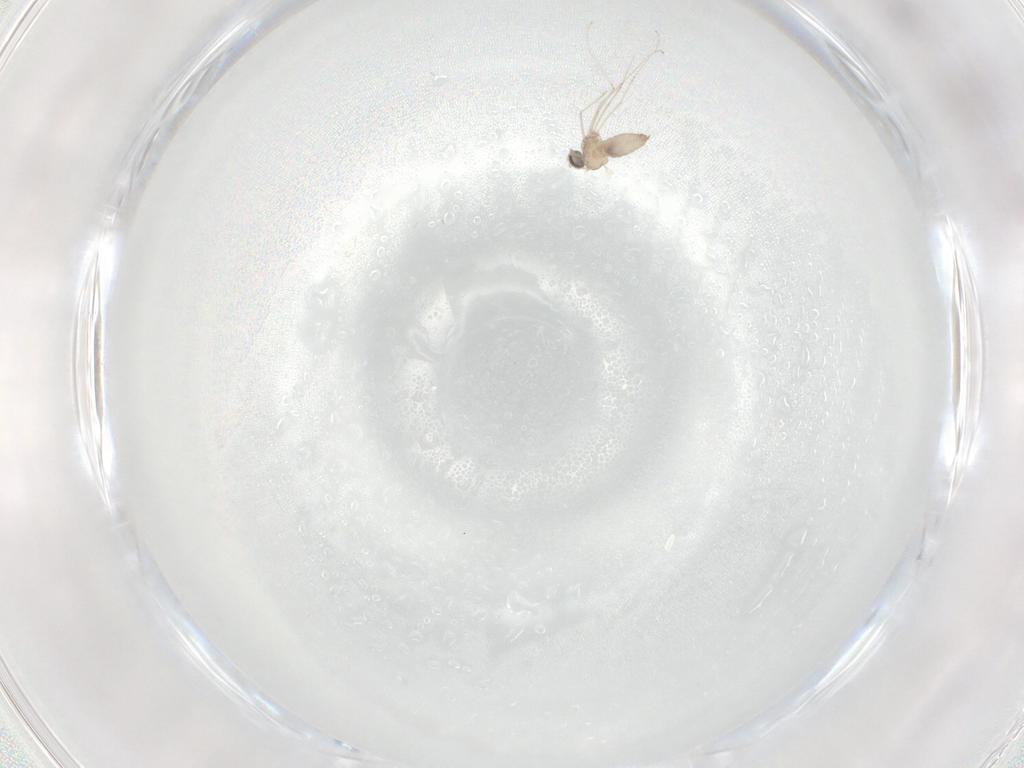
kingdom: Animalia
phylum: Arthropoda
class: Insecta
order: Diptera
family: Cecidomyiidae
